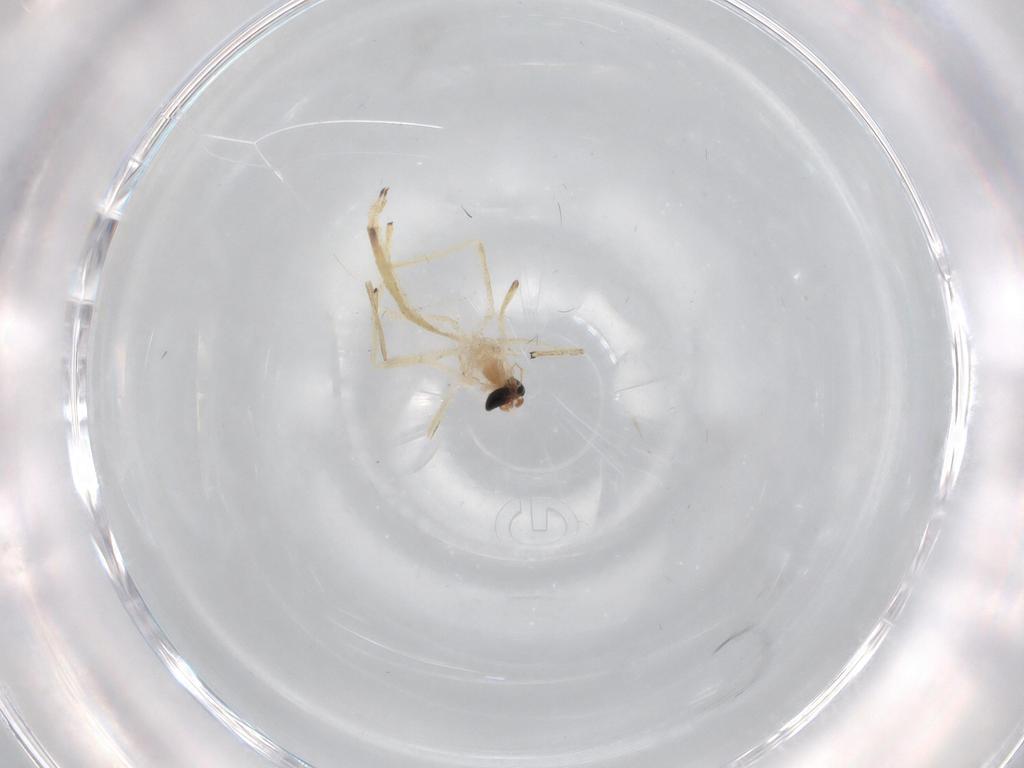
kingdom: Animalia
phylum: Arthropoda
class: Insecta
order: Diptera
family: Chironomidae
